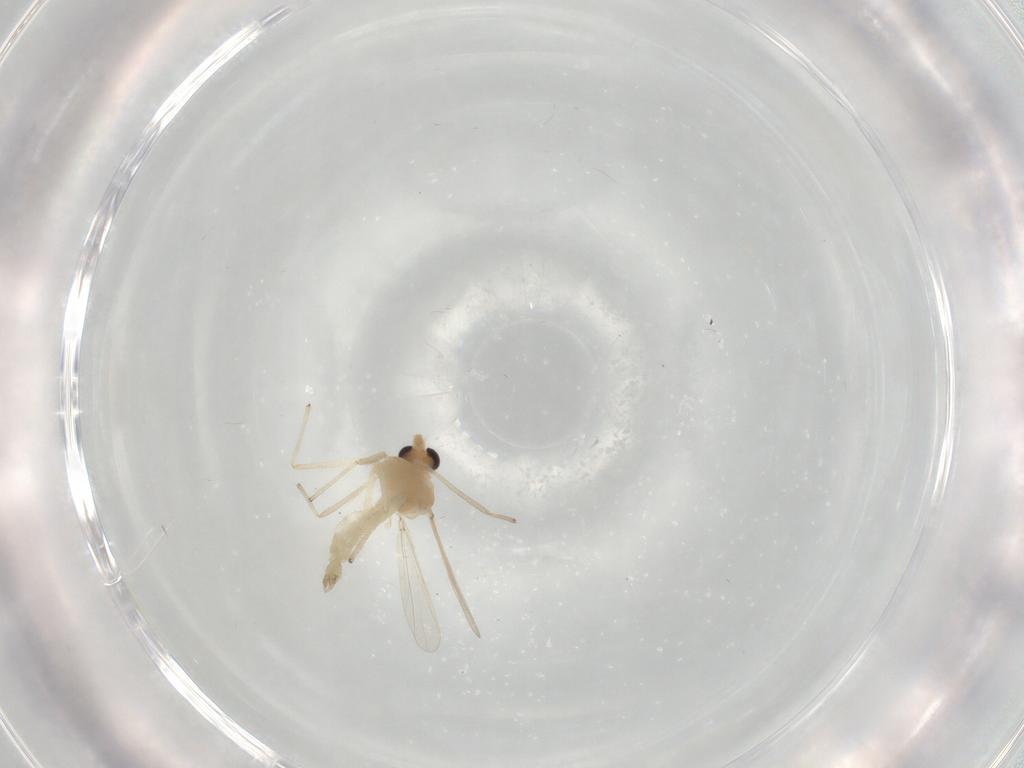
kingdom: Animalia
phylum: Arthropoda
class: Insecta
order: Diptera
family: Chironomidae
